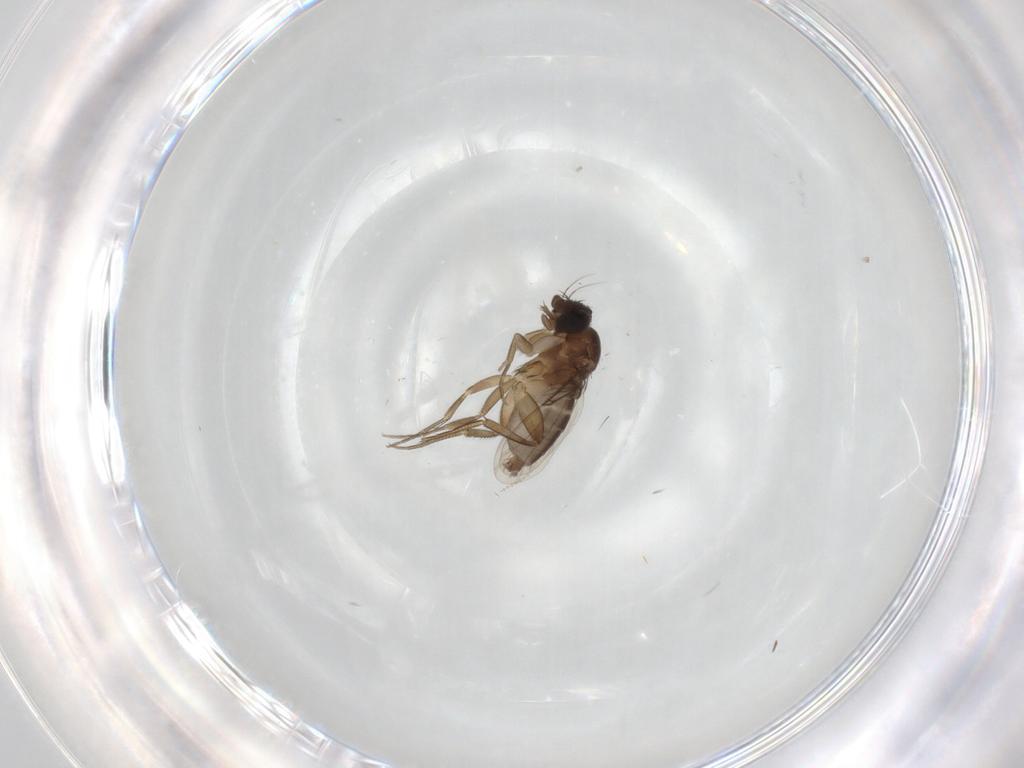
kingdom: Animalia
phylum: Arthropoda
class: Insecta
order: Diptera
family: Cecidomyiidae
